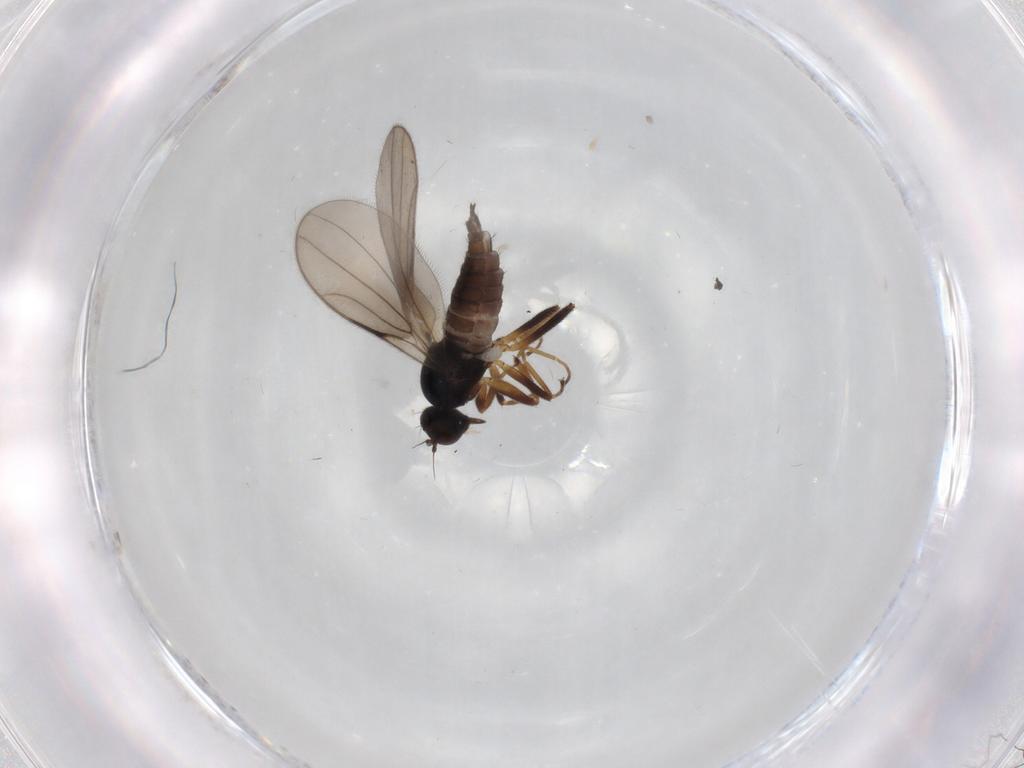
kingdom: Animalia
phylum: Arthropoda
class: Insecta
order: Diptera
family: Hybotidae
